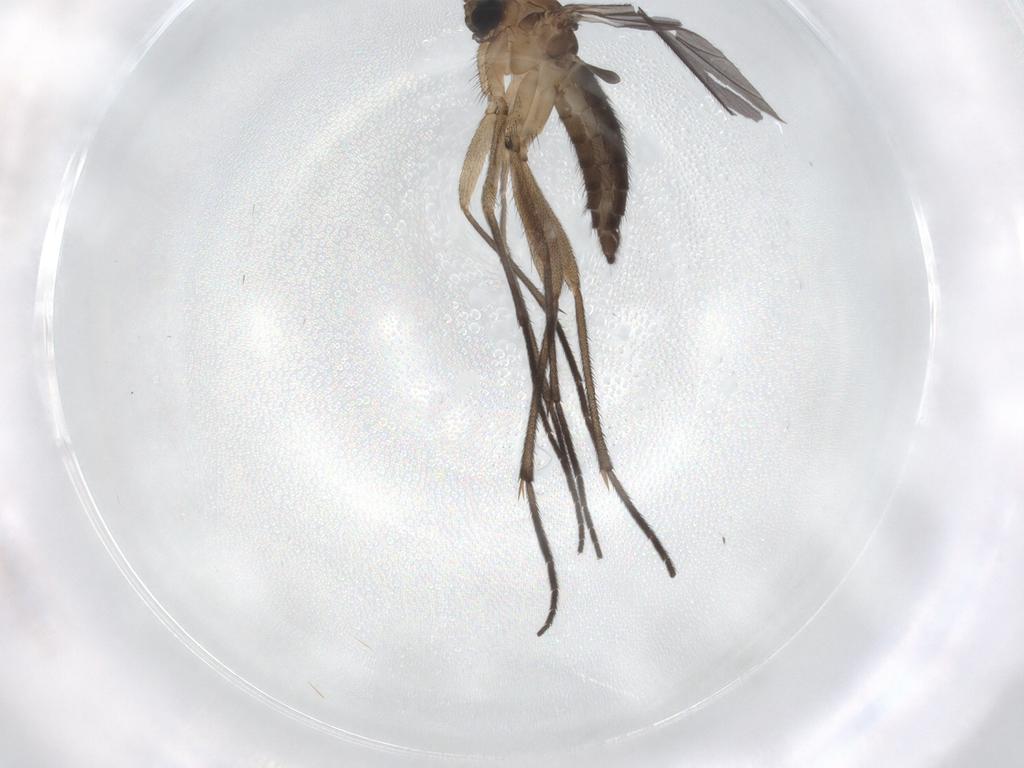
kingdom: Animalia
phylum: Arthropoda
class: Insecta
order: Diptera
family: Sciaridae
